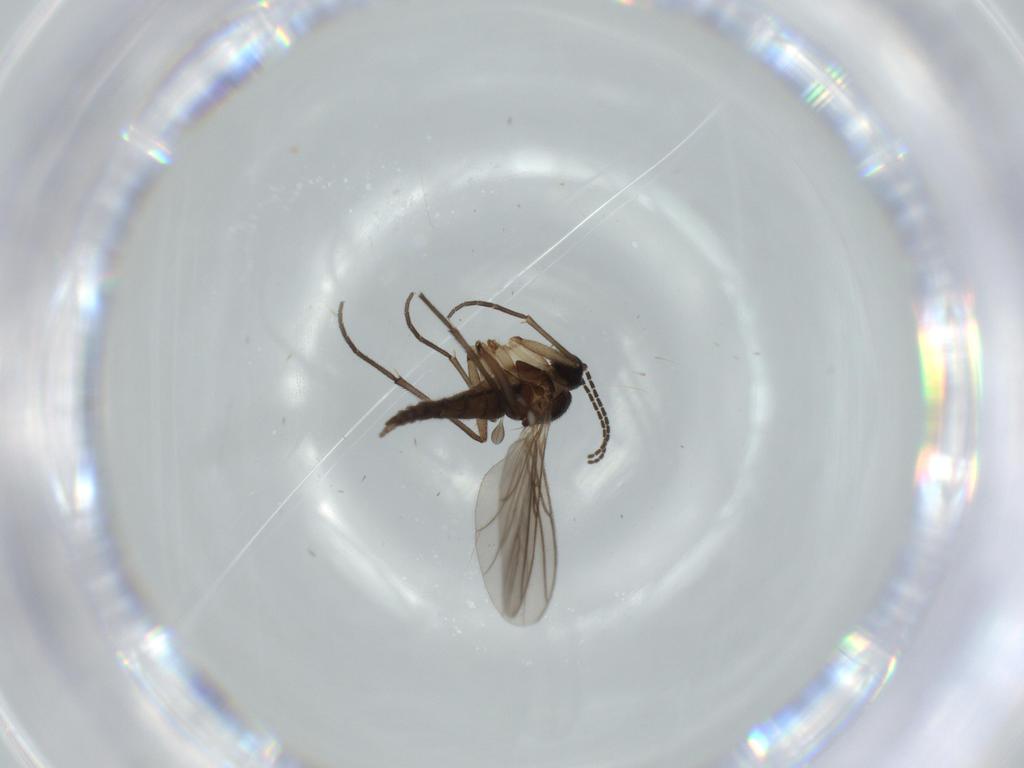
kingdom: Animalia
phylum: Arthropoda
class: Insecta
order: Diptera
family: Sciaridae
